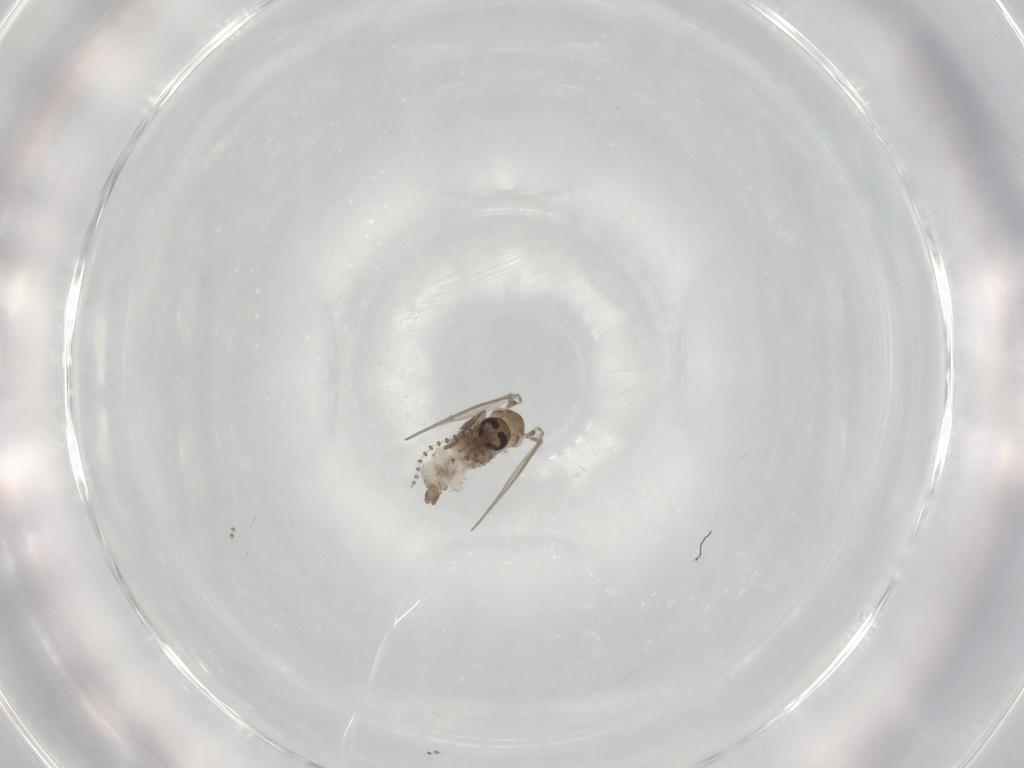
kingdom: Animalia
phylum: Arthropoda
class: Insecta
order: Diptera
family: Psychodidae
